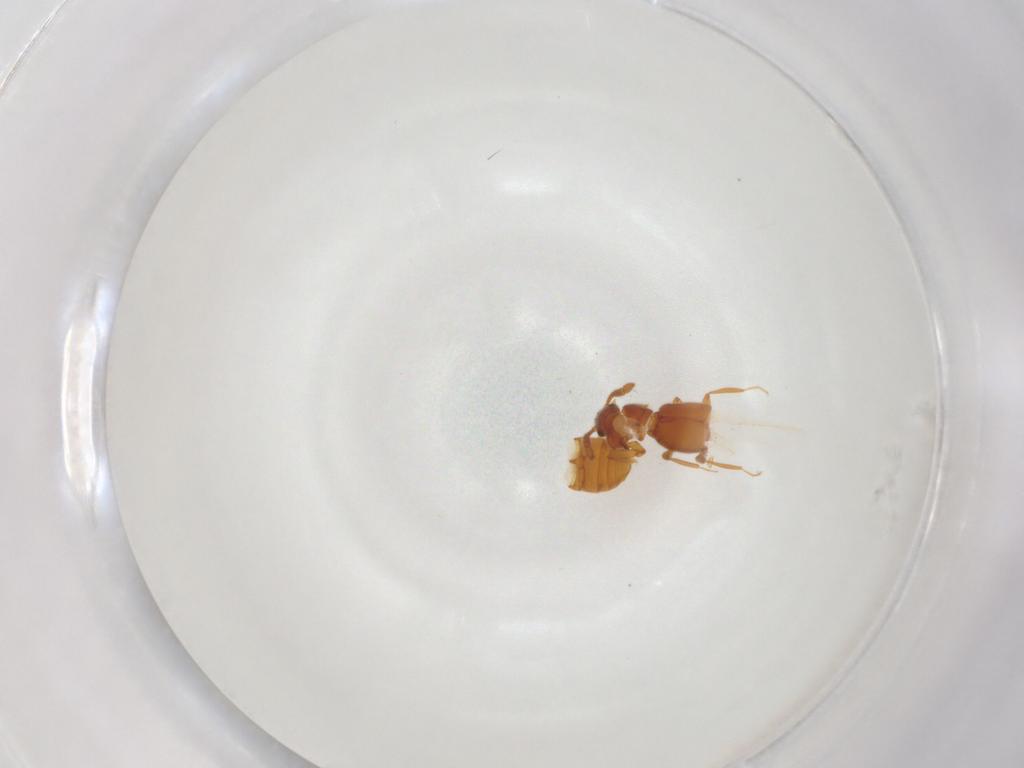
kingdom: Animalia
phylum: Arthropoda
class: Insecta
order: Coleoptera
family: Staphylinidae
